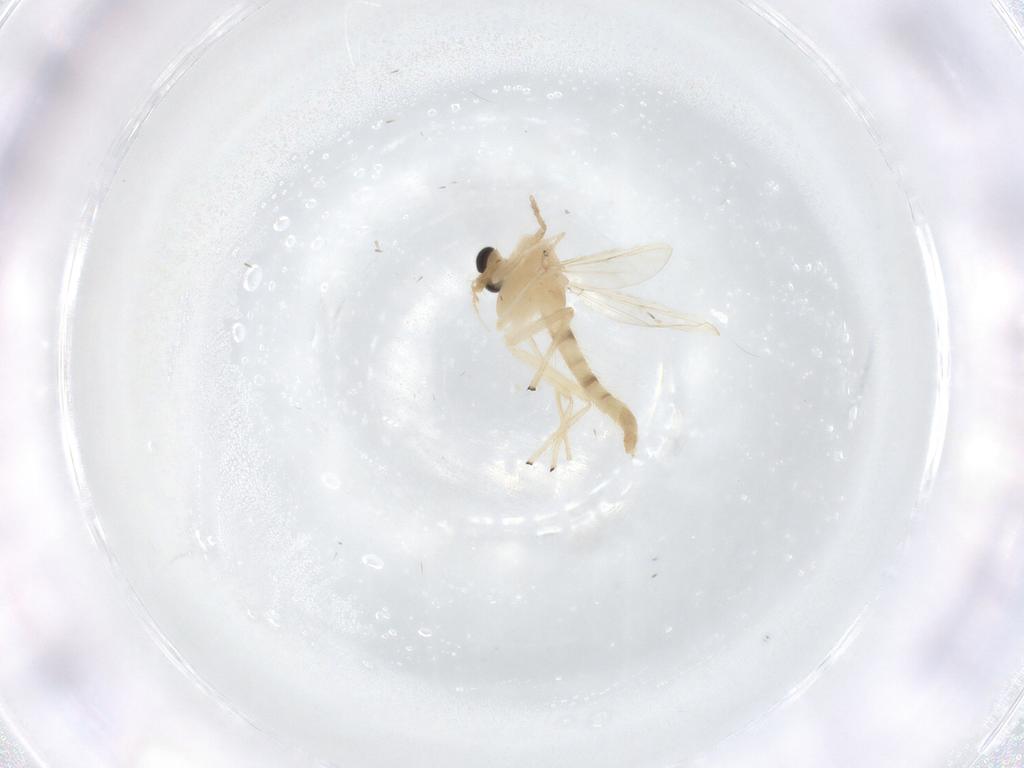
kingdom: Animalia
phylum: Arthropoda
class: Insecta
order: Diptera
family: Chironomidae
